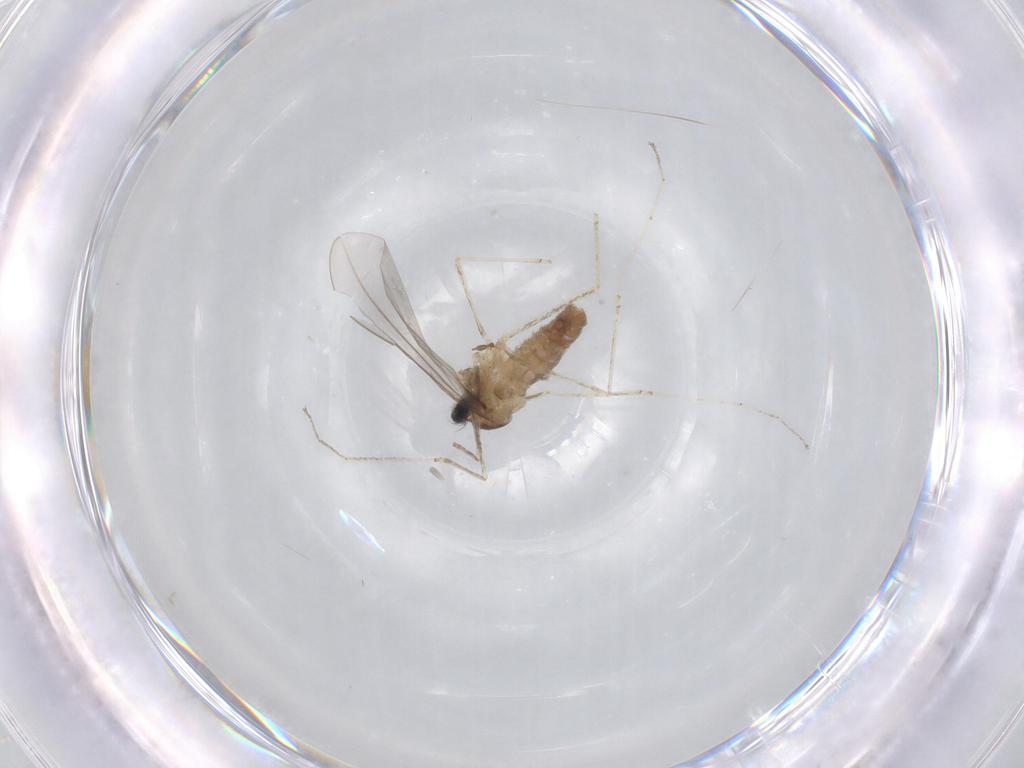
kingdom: Animalia
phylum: Arthropoda
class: Insecta
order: Diptera
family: Cecidomyiidae
